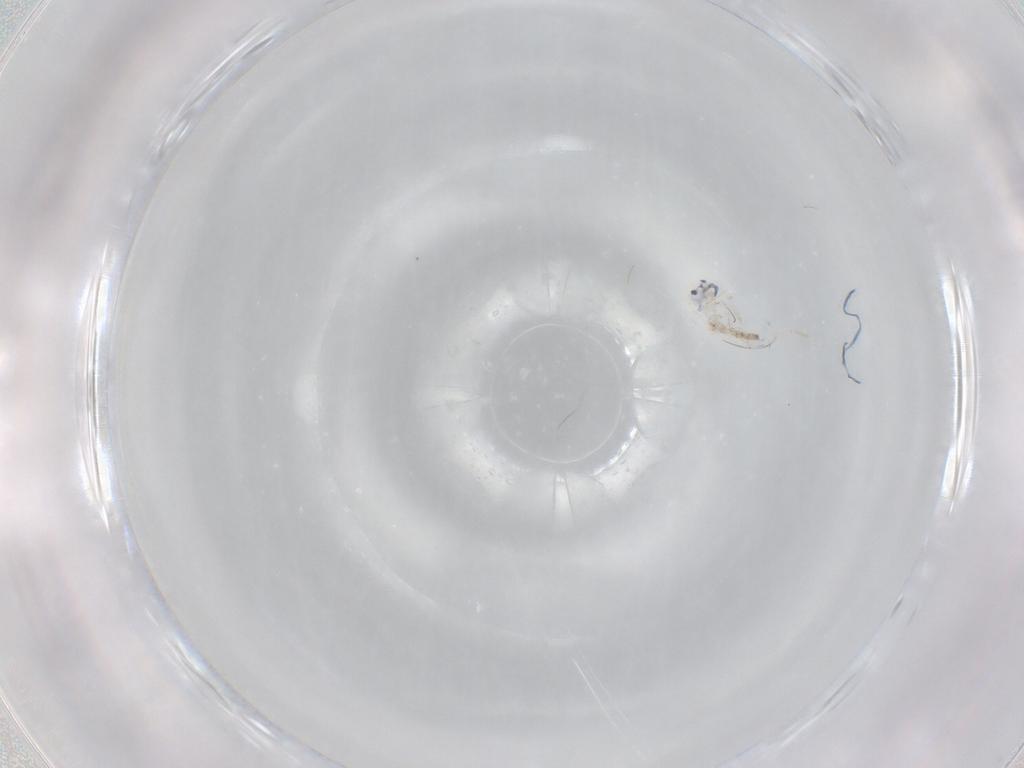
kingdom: Animalia
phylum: Arthropoda
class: Collembola
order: Entomobryomorpha
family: Entomobryidae
